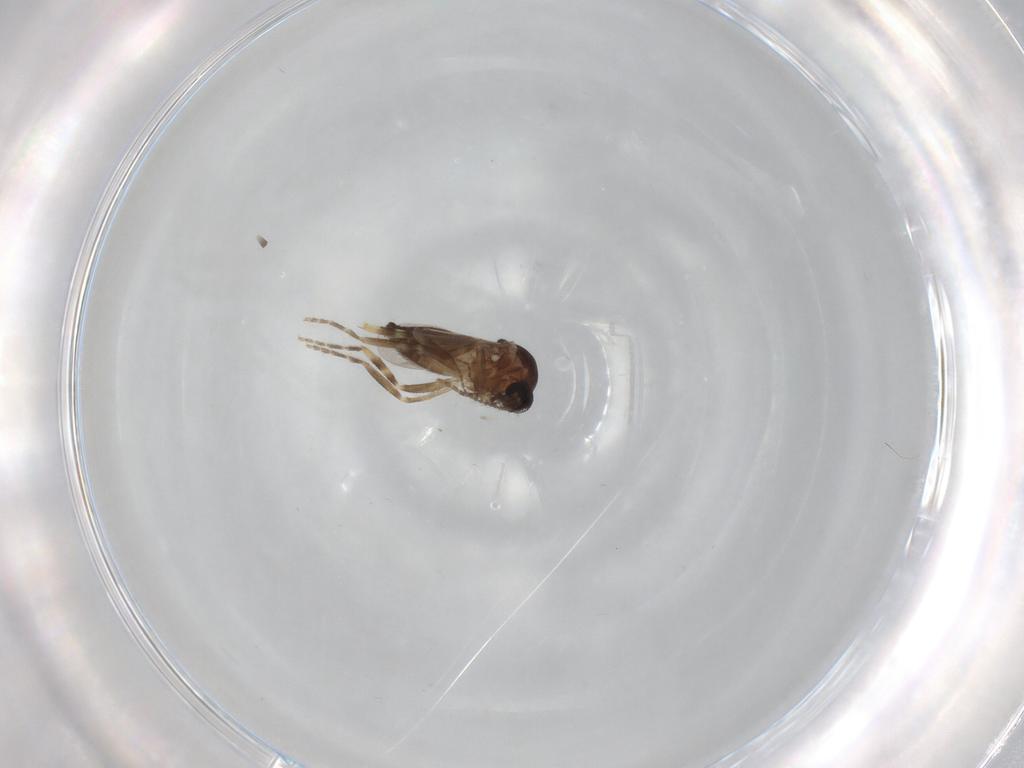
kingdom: Animalia
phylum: Arthropoda
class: Insecta
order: Diptera
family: Ceratopogonidae
